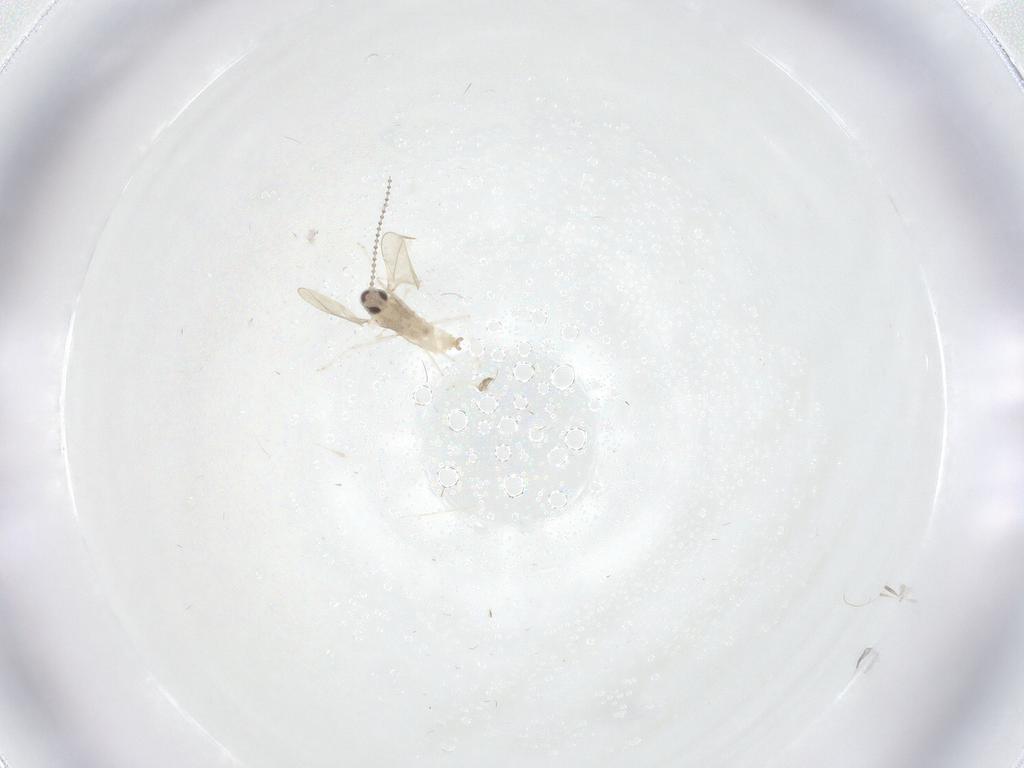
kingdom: Animalia
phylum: Arthropoda
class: Insecta
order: Diptera
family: Cecidomyiidae
